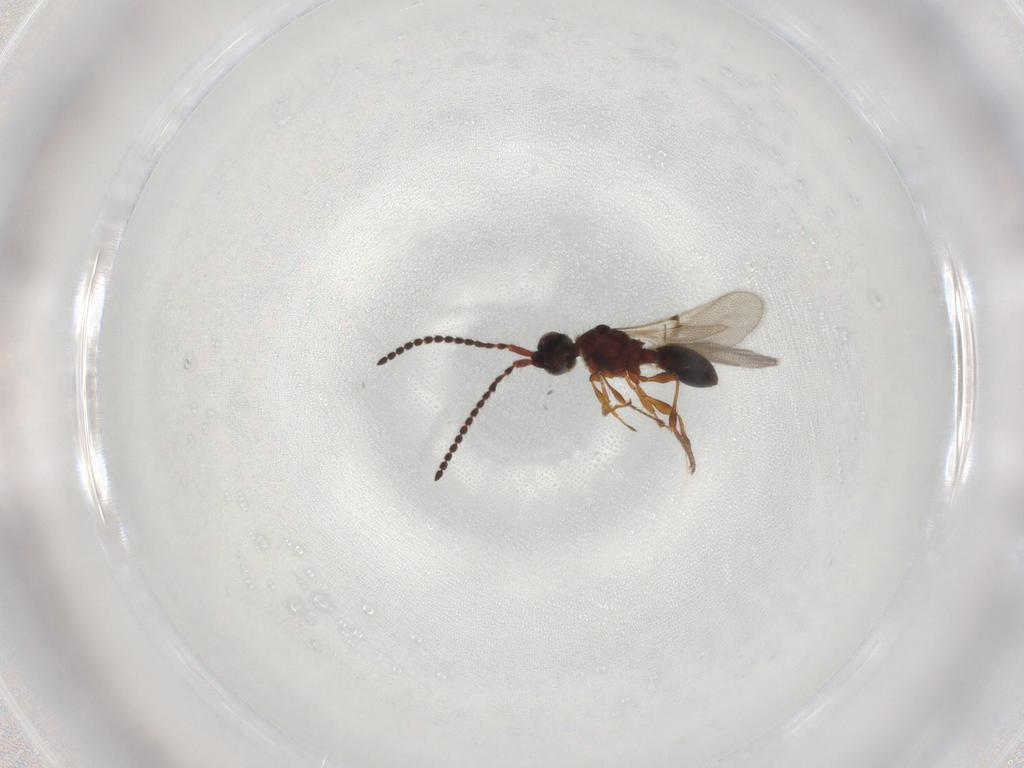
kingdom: Animalia
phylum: Arthropoda
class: Insecta
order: Hymenoptera
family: Diapriidae
